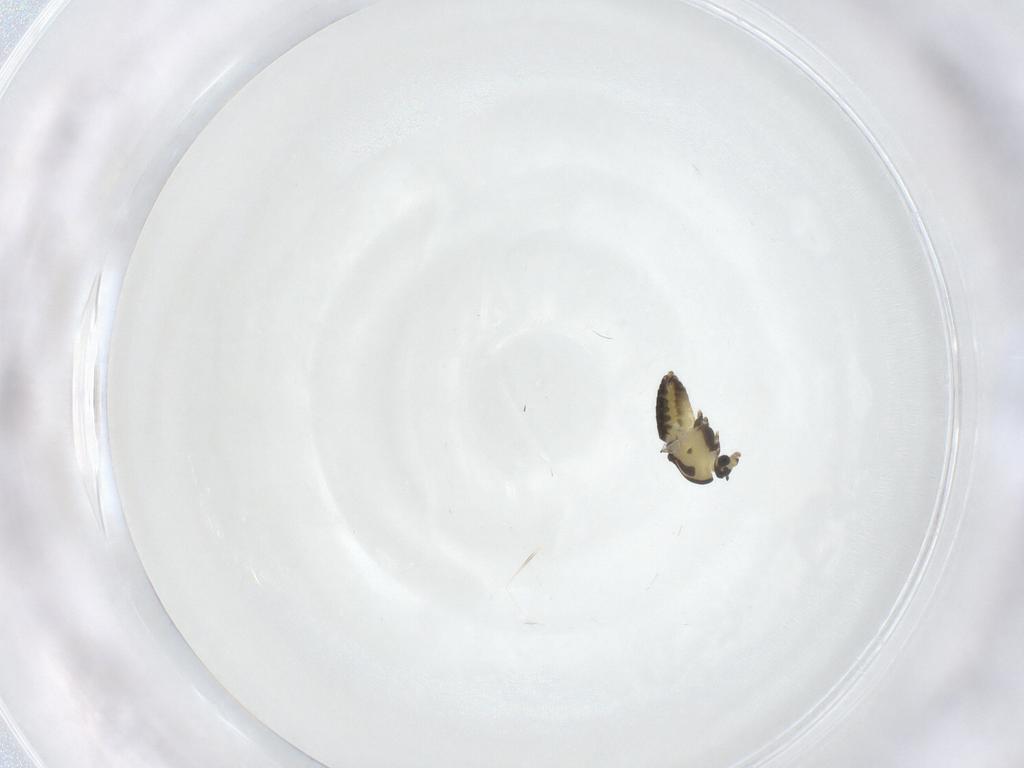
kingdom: Animalia
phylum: Arthropoda
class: Insecta
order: Diptera
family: Chironomidae
